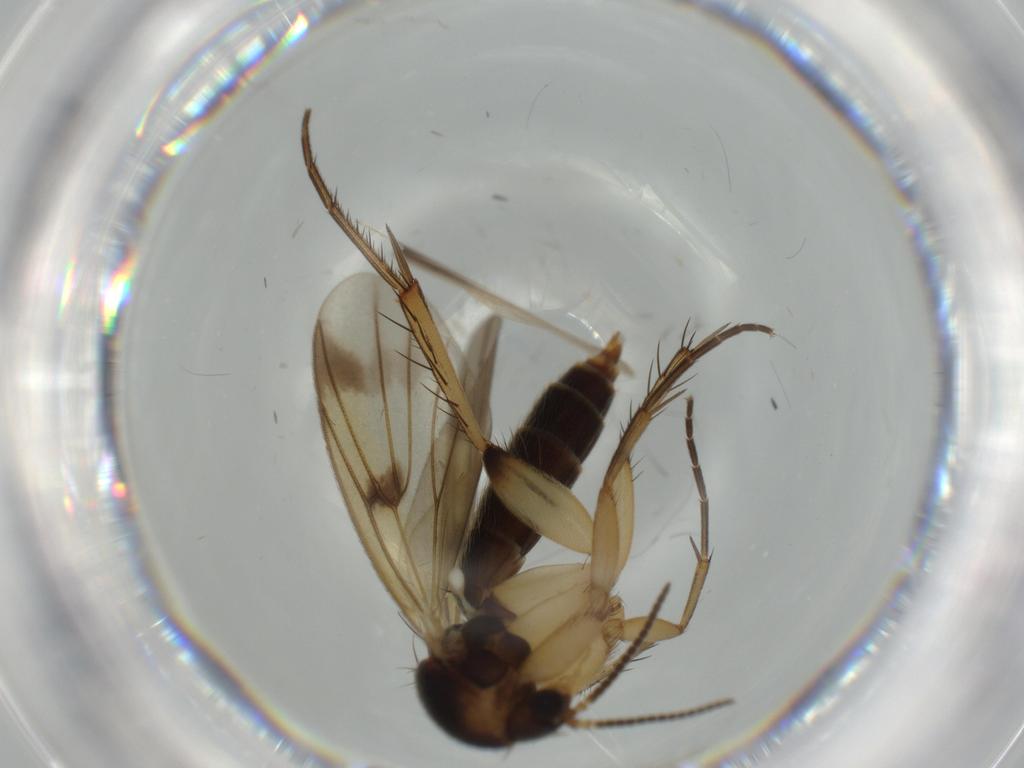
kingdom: Animalia
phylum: Arthropoda
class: Insecta
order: Diptera
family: Mycetophilidae
